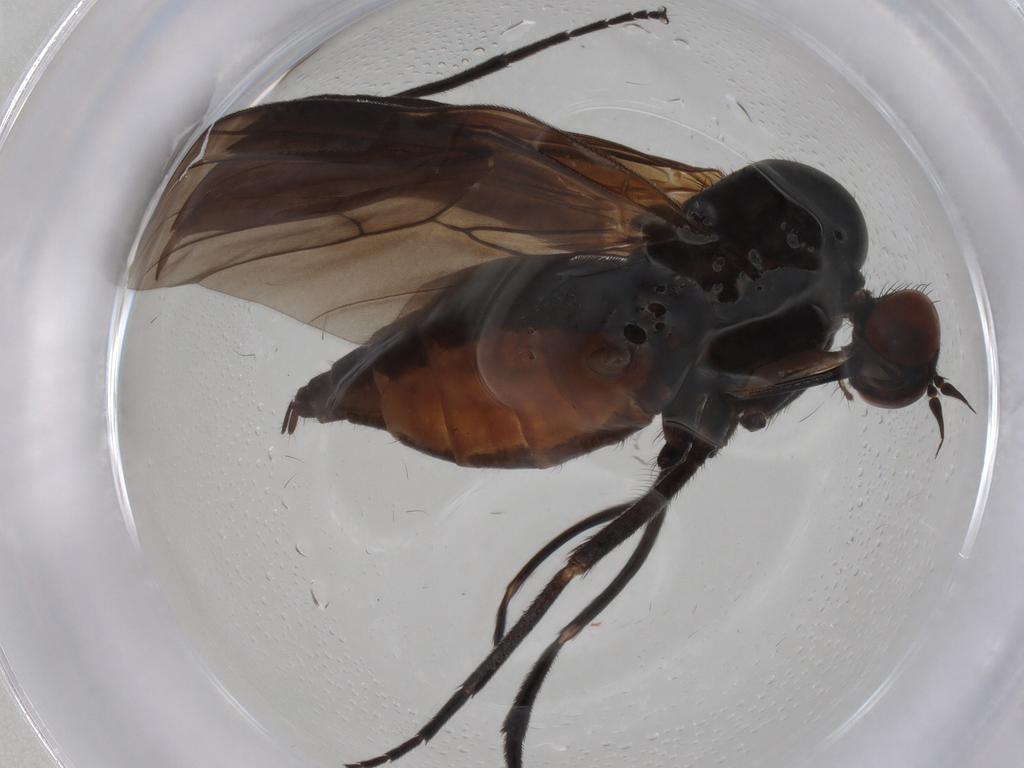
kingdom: Animalia
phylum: Arthropoda
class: Insecta
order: Diptera
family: Empididae
